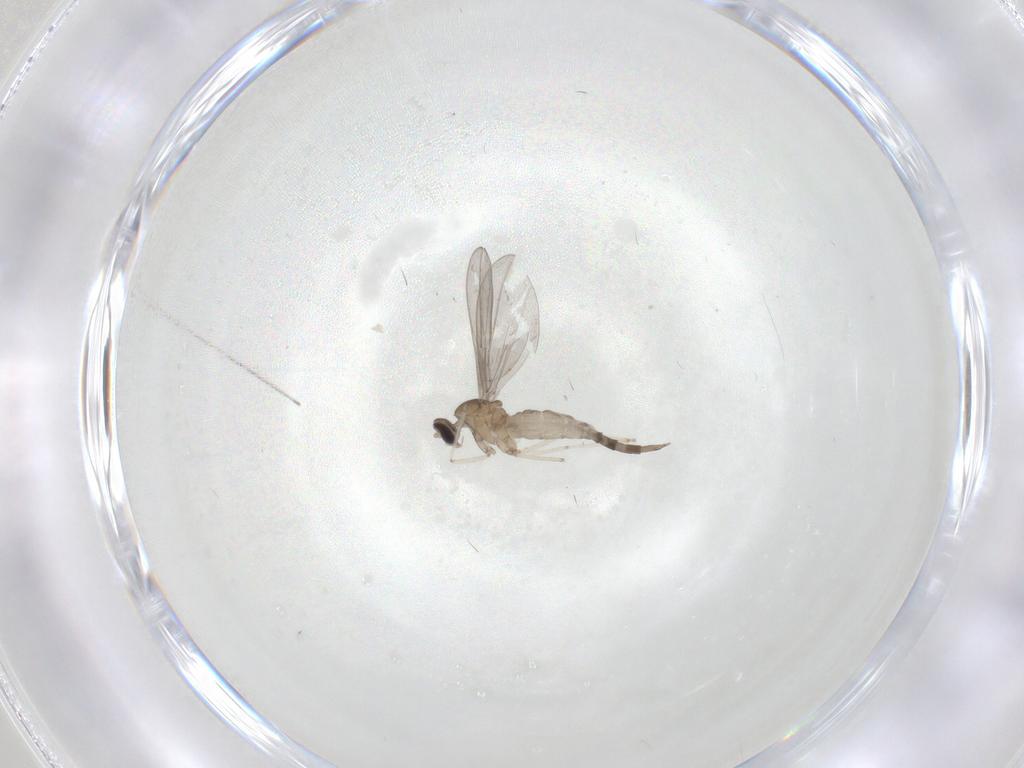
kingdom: Animalia
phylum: Arthropoda
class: Insecta
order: Diptera
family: Cecidomyiidae
